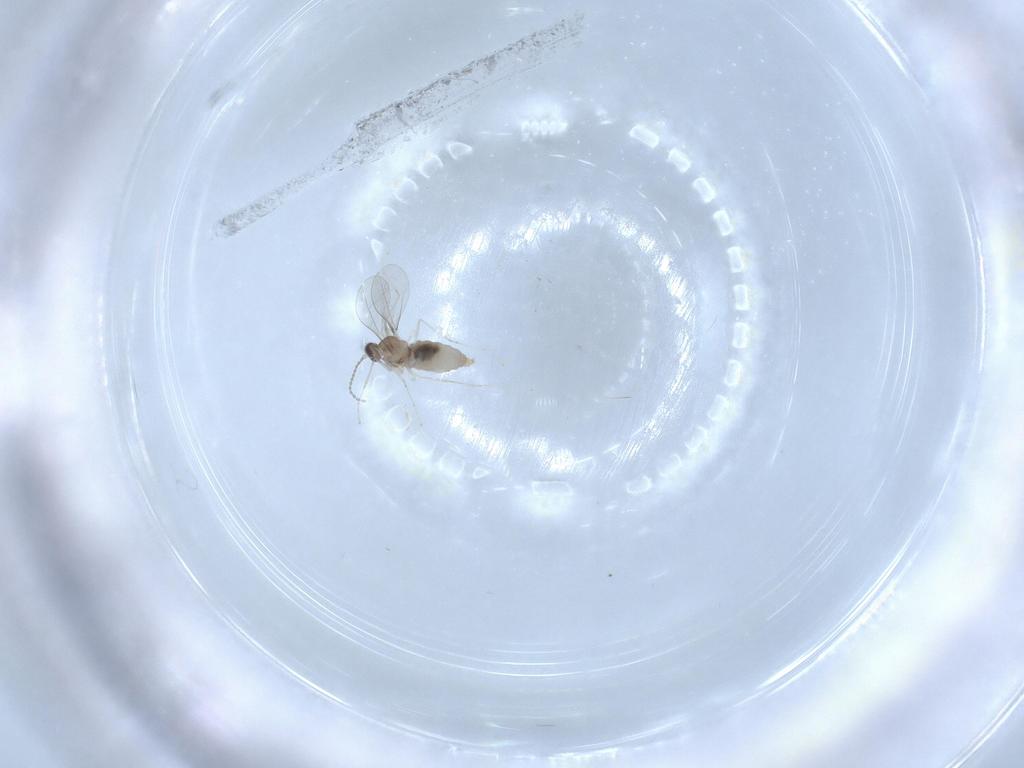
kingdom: Animalia
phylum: Arthropoda
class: Insecta
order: Diptera
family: Cecidomyiidae
